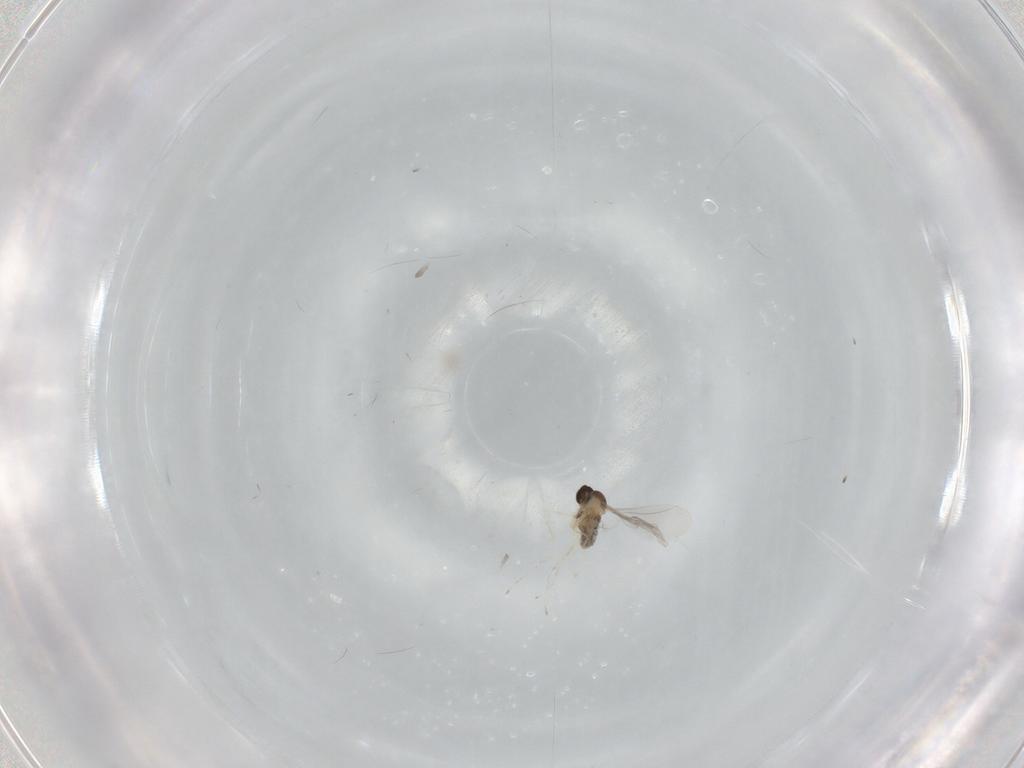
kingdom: Animalia
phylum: Arthropoda
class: Insecta
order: Diptera
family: Cecidomyiidae
